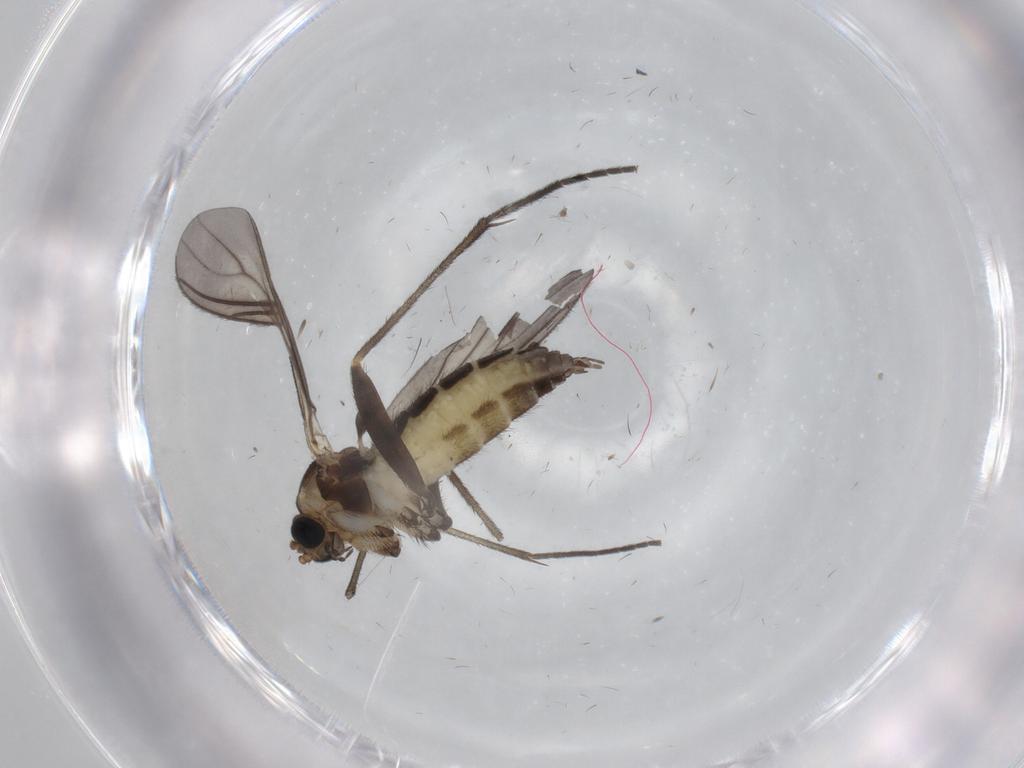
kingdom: Animalia
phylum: Arthropoda
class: Insecta
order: Diptera
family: Sciaridae
